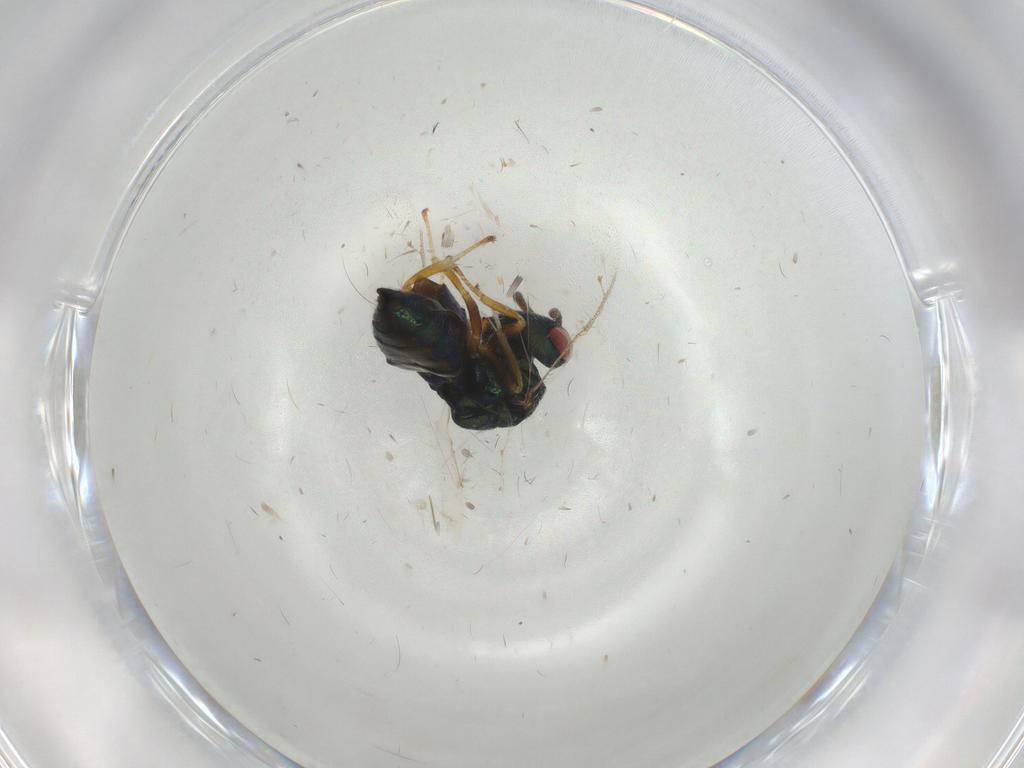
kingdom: Animalia
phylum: Arthropoda
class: Insecta
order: Hymenoptera
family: Pteromalidae
